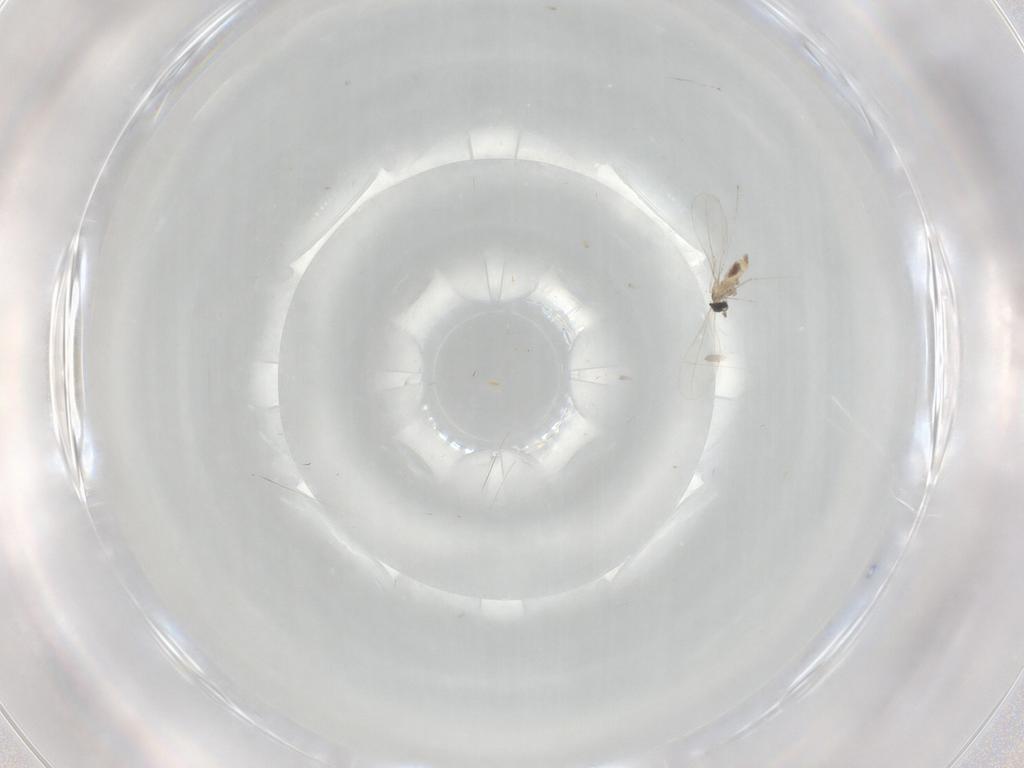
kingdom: Animalia
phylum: Arthropoda
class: Insecta
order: Diptera
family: Cecidomyiidae
